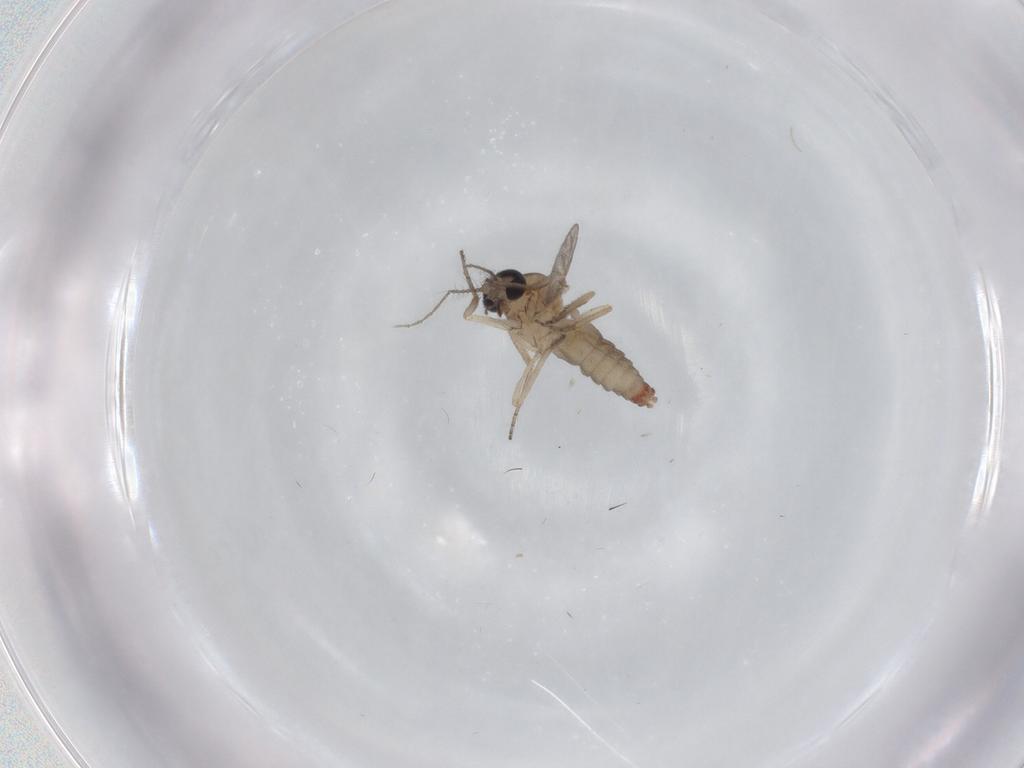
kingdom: Animalia
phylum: Arthropoda
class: Insecta
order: Diptera
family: Ceratopogonidae
